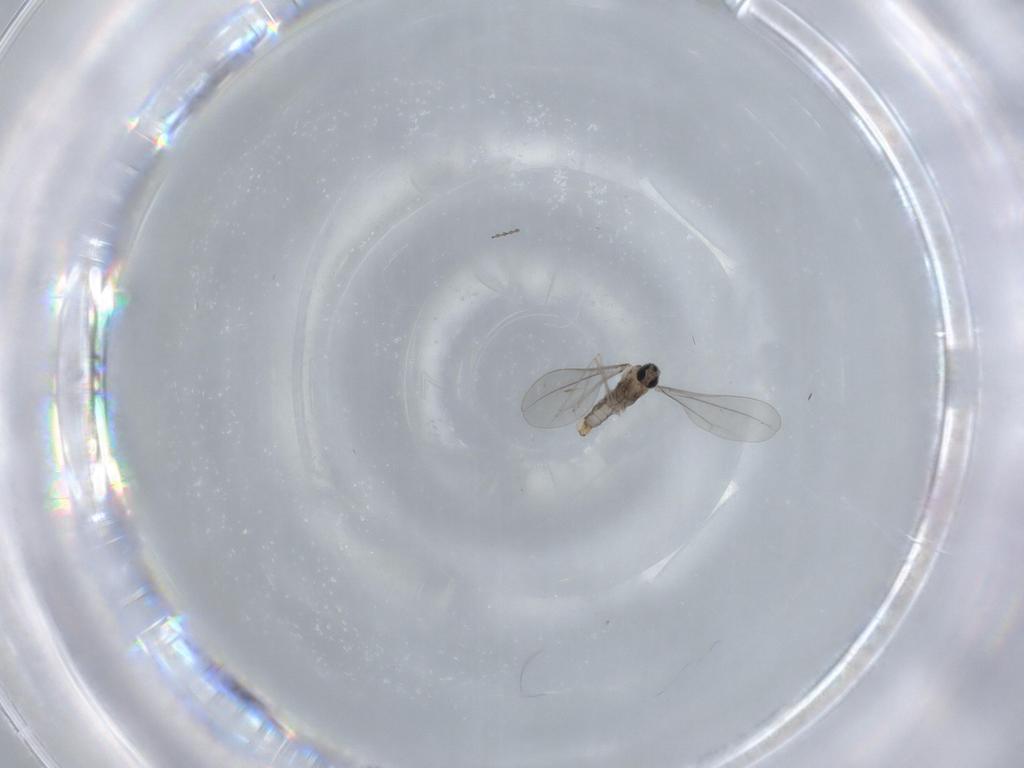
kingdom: Animalia
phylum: Arthropoda
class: Insecta
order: Diptera
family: Cecidomyiidae
